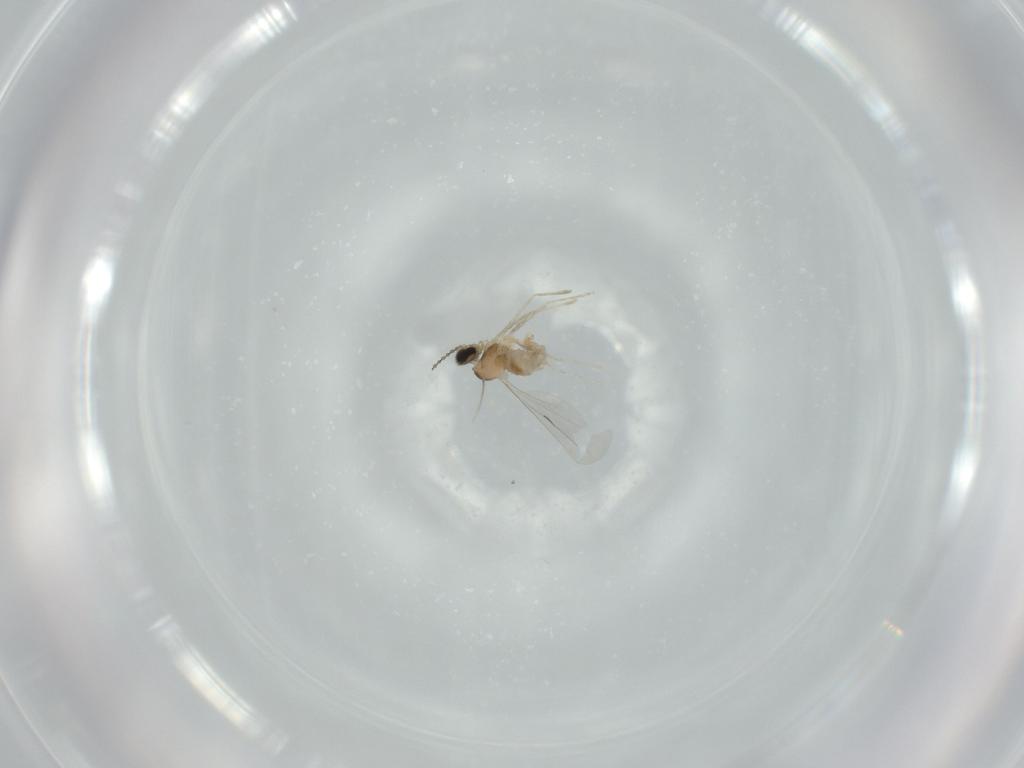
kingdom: Animalia
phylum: Arthropoda
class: Insecta
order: Diptera
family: Cecidomyiidae
